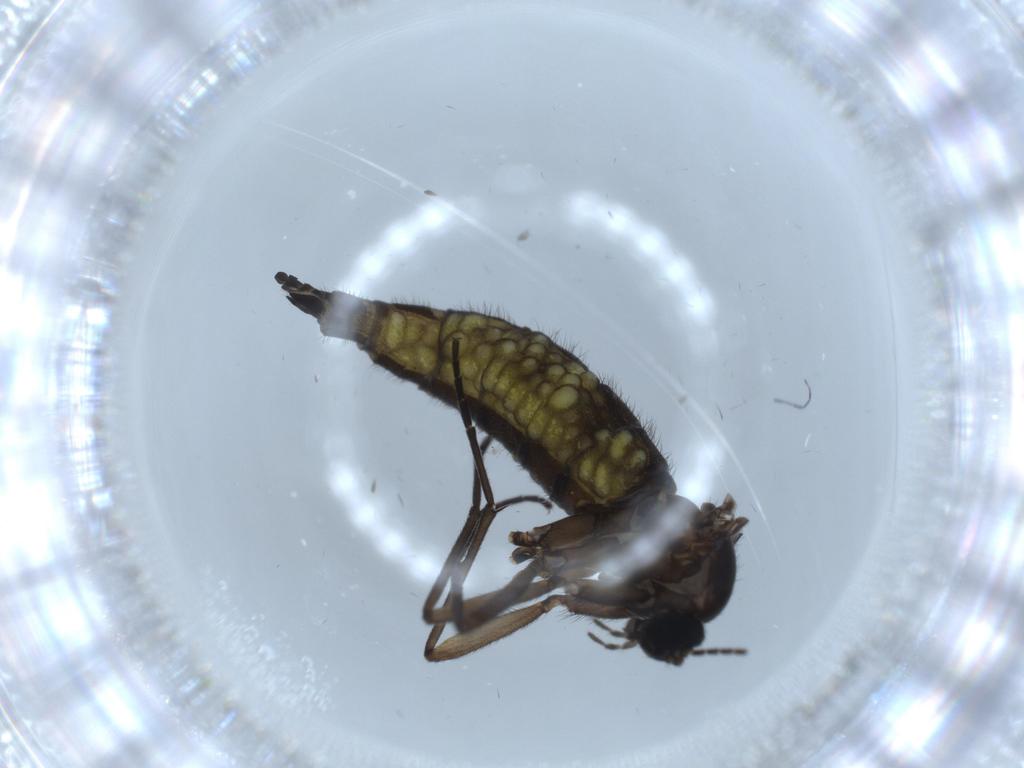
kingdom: Animalia
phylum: Arthropoda
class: Insecta
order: Diptera
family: Sciaridae
